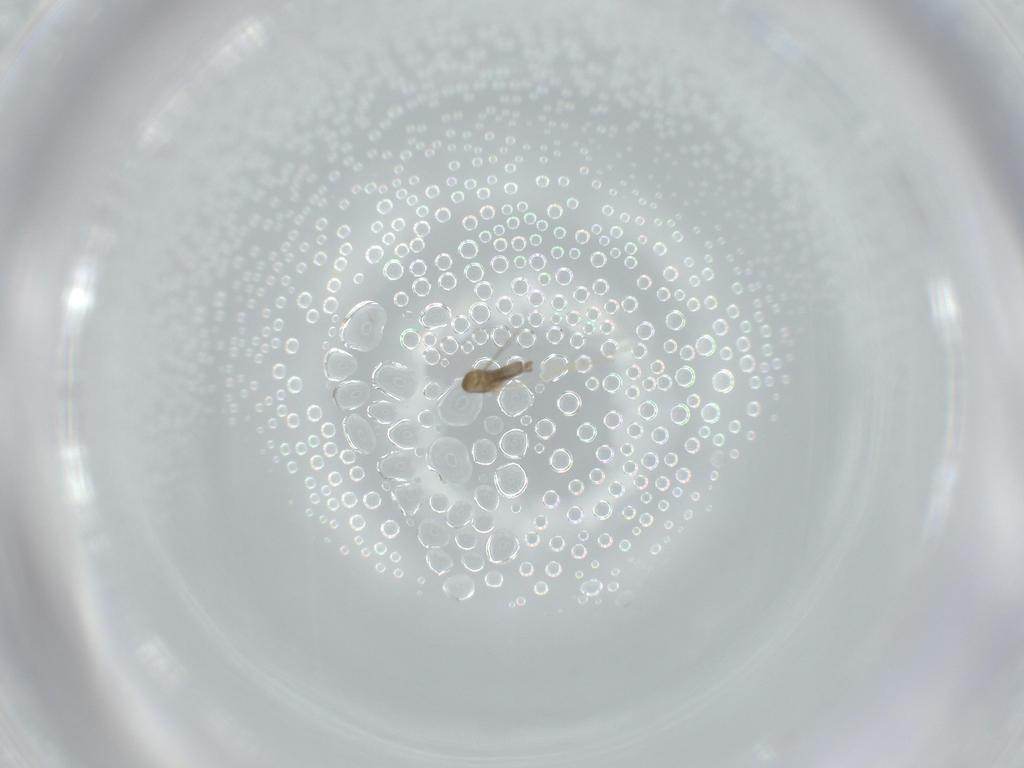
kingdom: Animalia
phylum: Arthropoda
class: Insecta
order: Diptera
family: Cecidomyiidae
